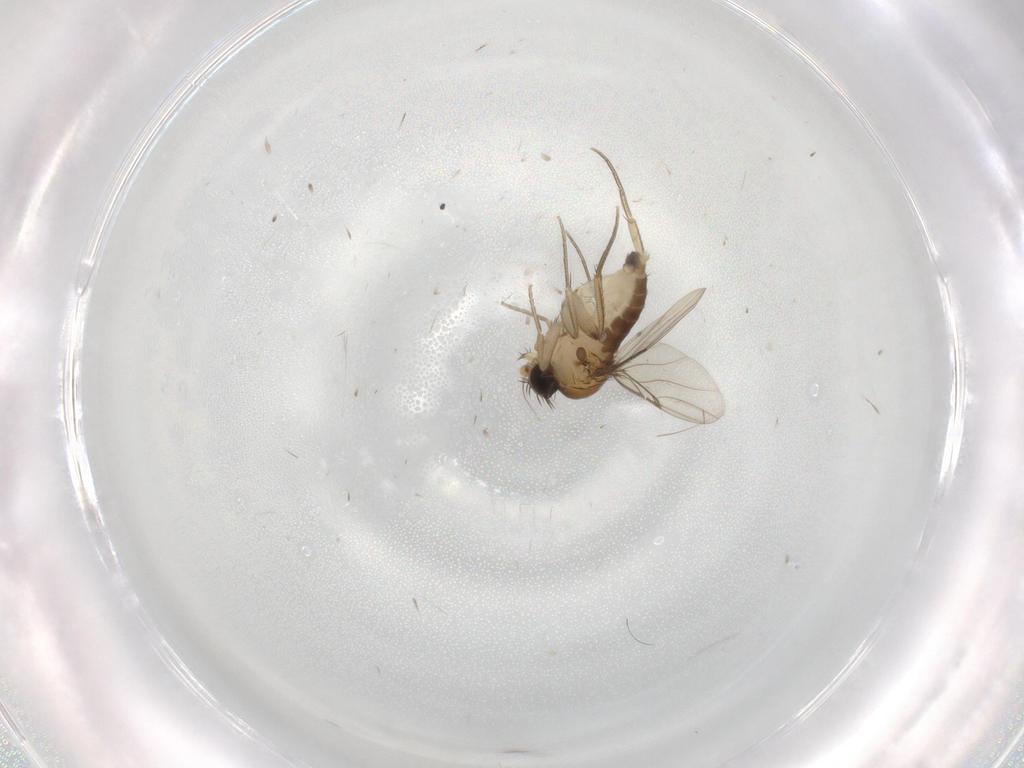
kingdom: Animalia
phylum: Arthropoda
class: Insecta
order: Diptera
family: Phoridae
